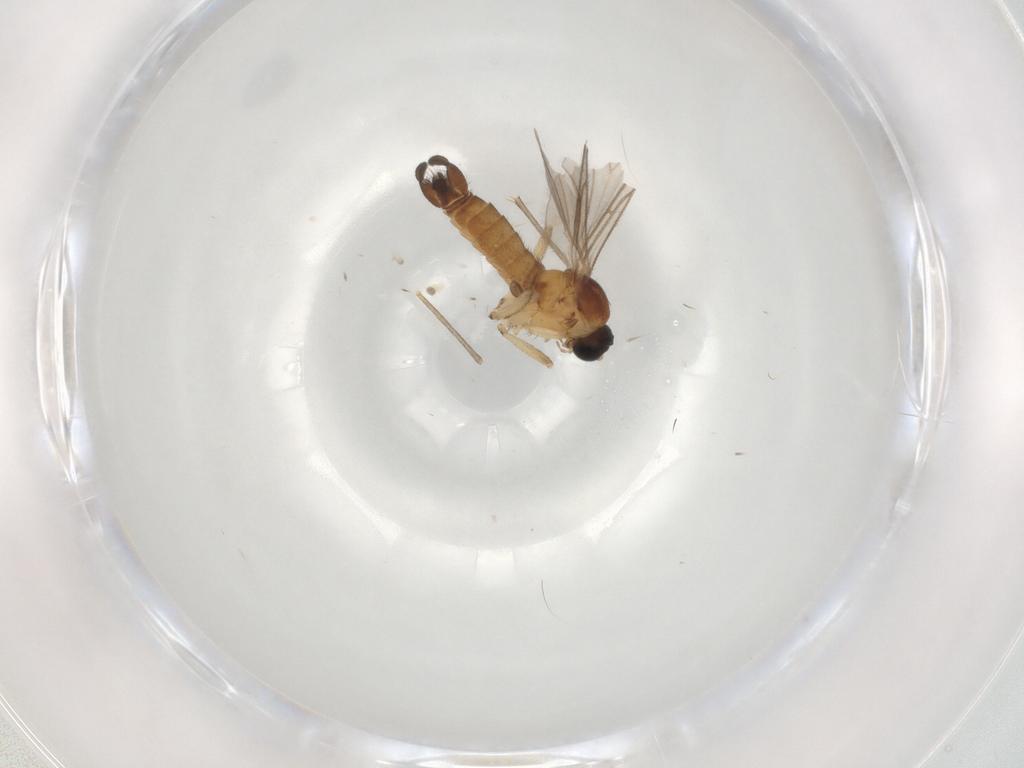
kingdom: Animalia
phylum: Arthropoda
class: Insecta
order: Diptera
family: Sciaridae
